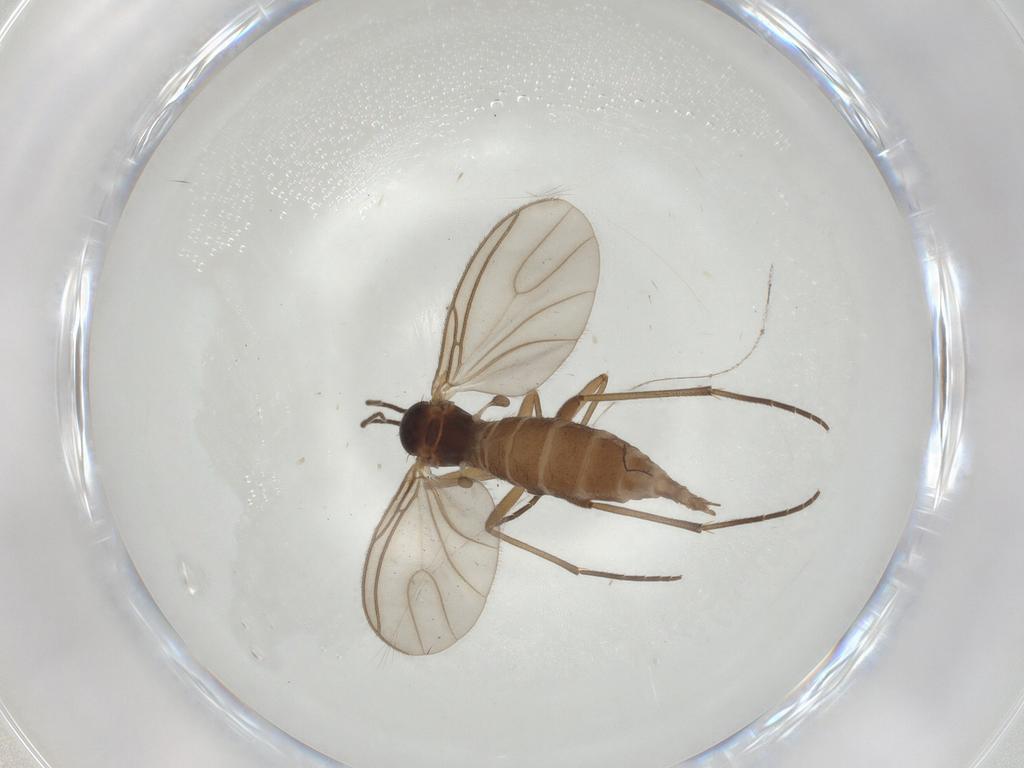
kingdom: Animalia
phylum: Arthropoda
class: Insecta
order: Diptera
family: Sciaridae
